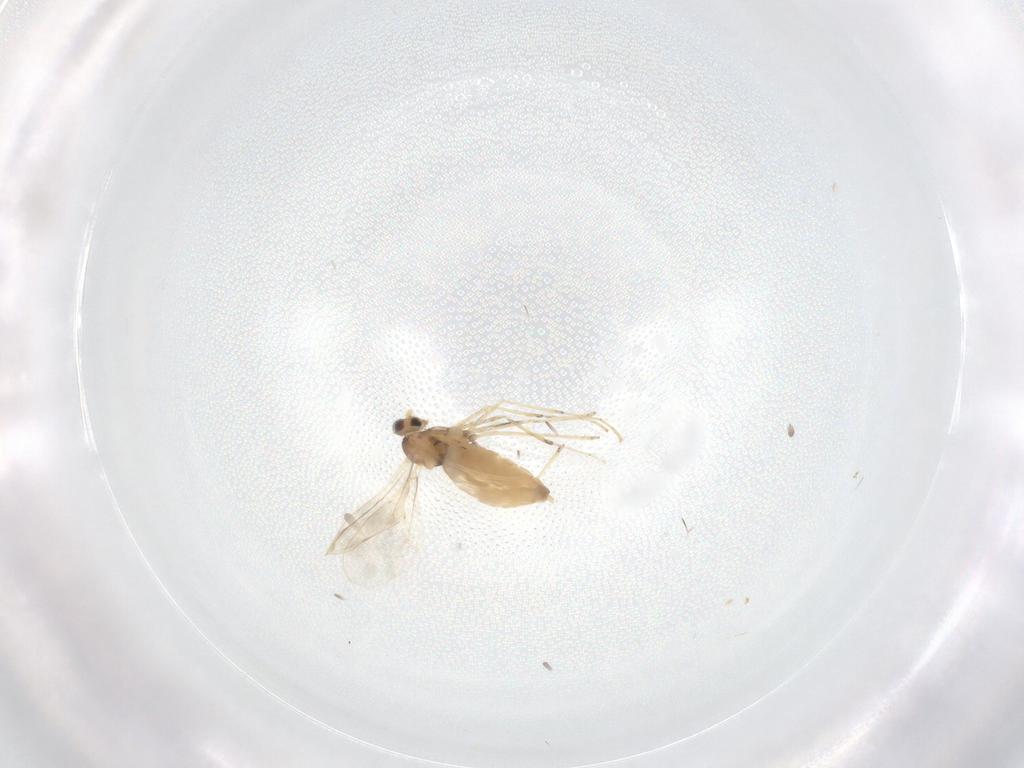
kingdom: Animalia
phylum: Arthropoda
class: Insecta
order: Diptera
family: Cecidomyiidae
